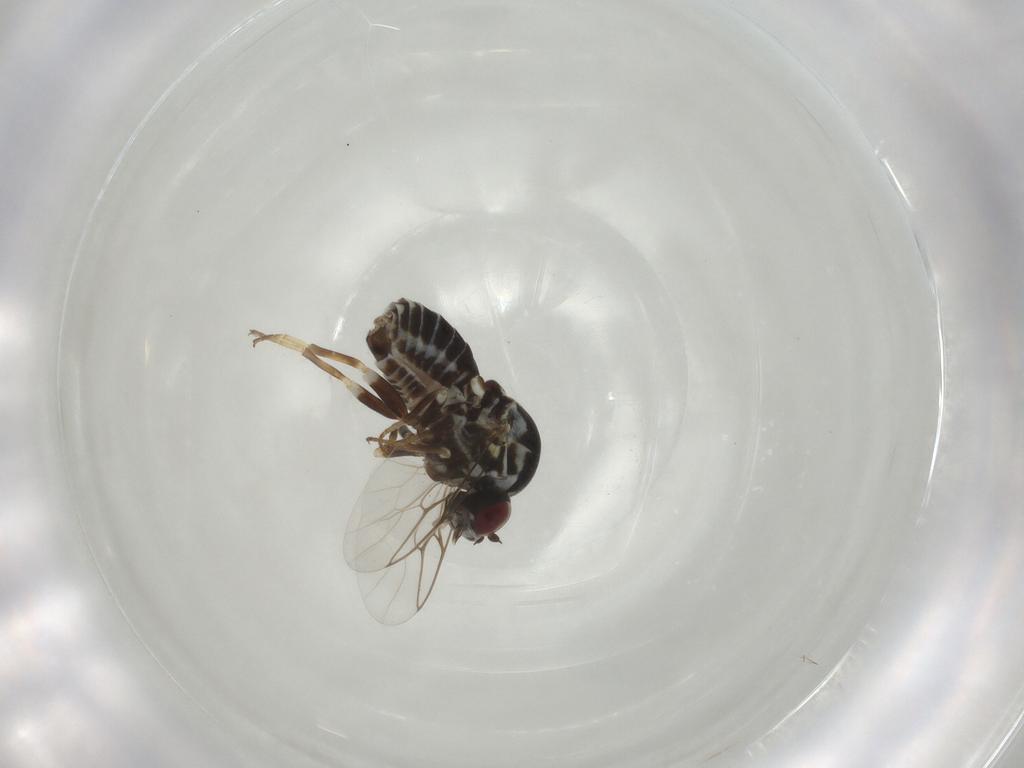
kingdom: Animalia
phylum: Arthropoda
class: Insecta
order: Diptera
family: Bombyliidae
